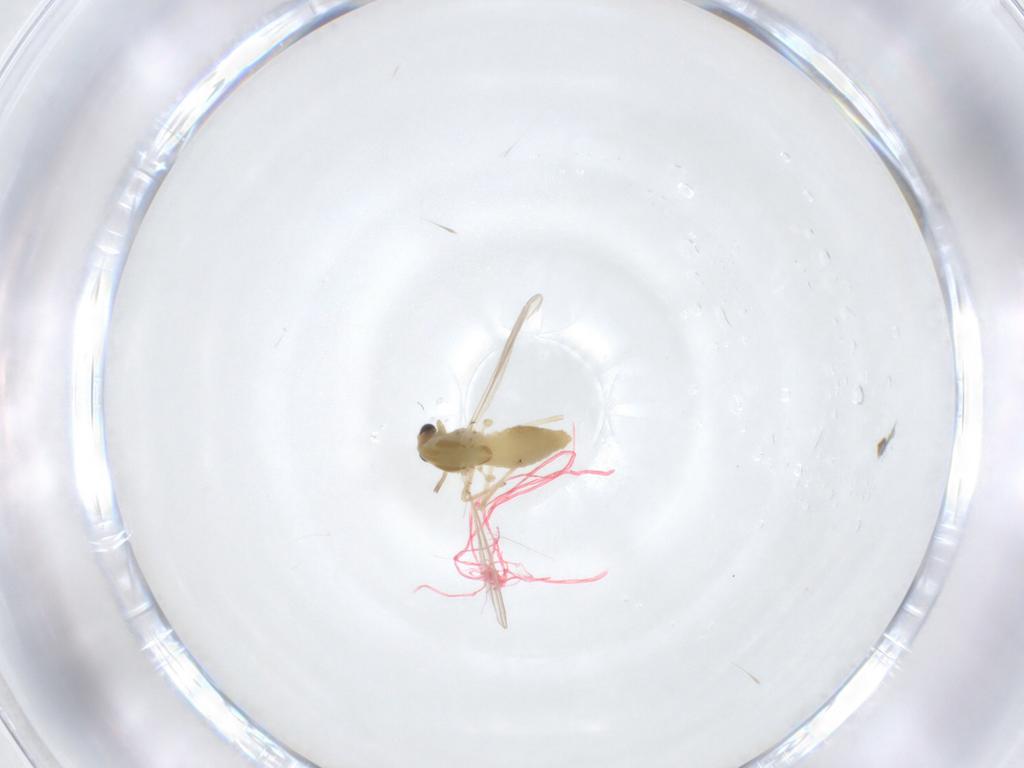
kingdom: Animalia
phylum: Arthropoda
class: Insecta
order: Diptera
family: Chironomidae
